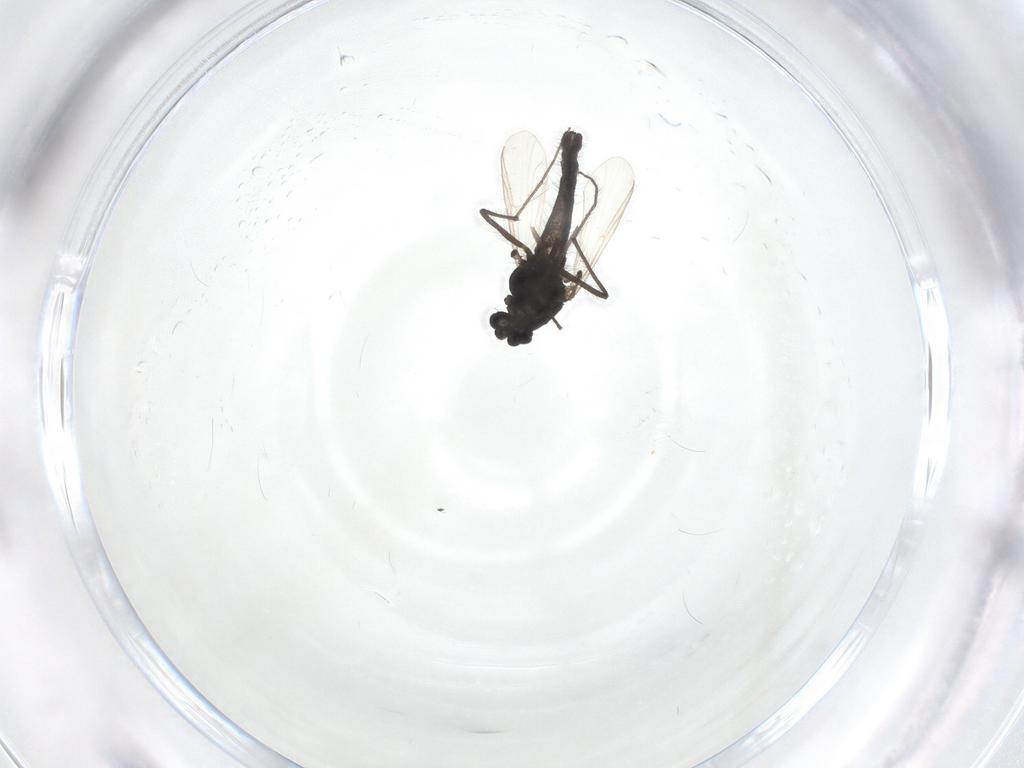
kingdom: Animalia
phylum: Arthropoda
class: Insecta
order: Diptera
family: Chironomidae
